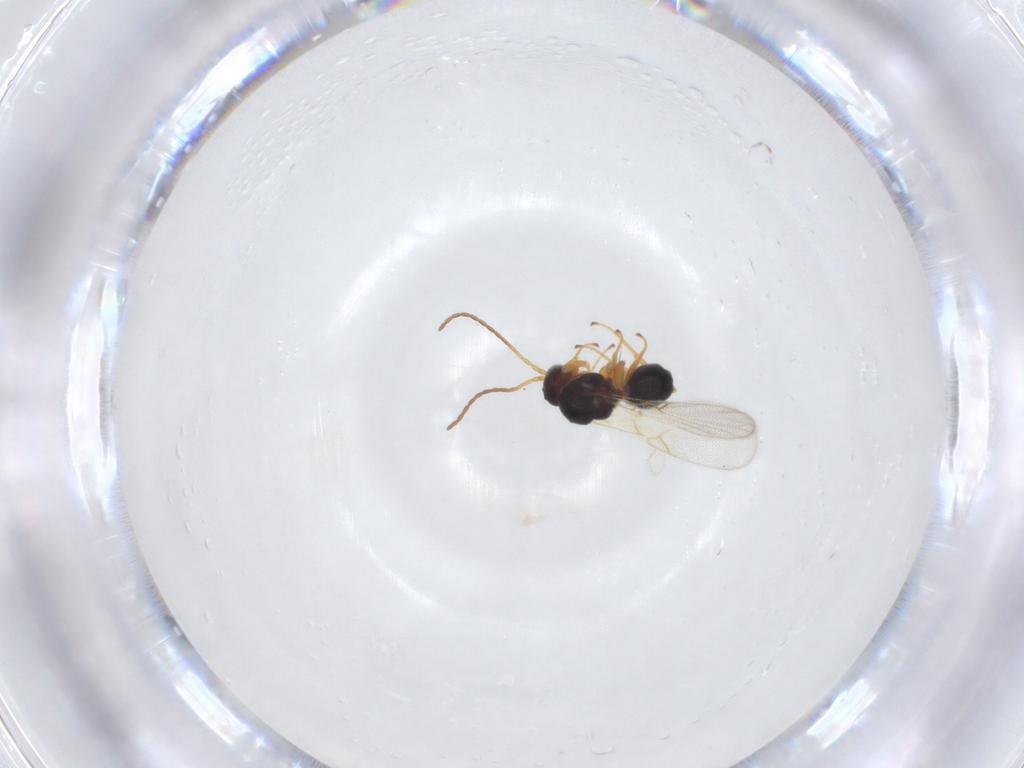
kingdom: Animalia
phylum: Arthropoda
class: Insecta
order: Hymenoptera
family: Figitidae
